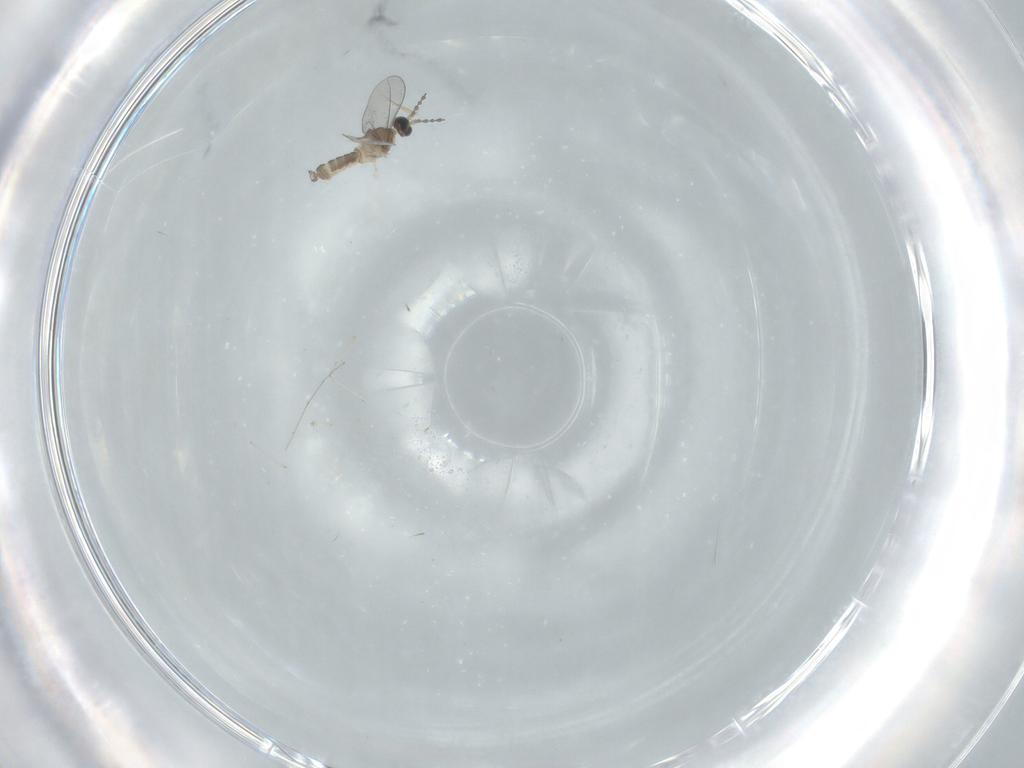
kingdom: Animalia
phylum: Arthropoda
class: Insecta
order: Diptera
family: Cecidomyiidae
